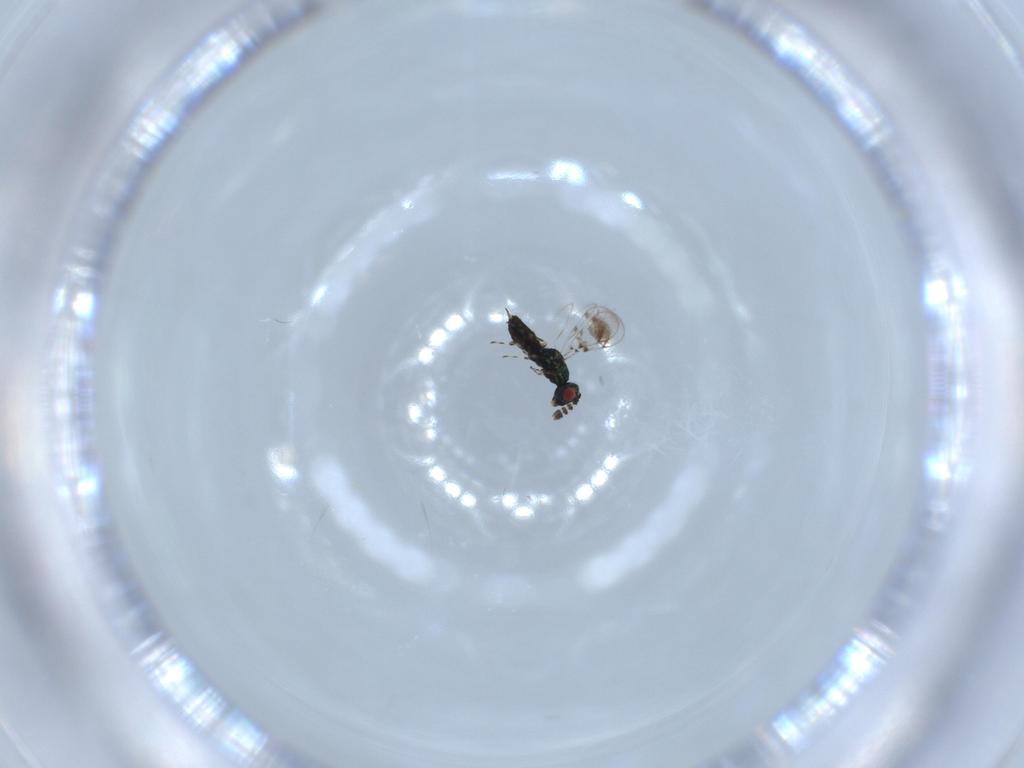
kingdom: Animalia
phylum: Arthropoda
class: Insecta
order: Hymenoptera
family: Eulophidae
